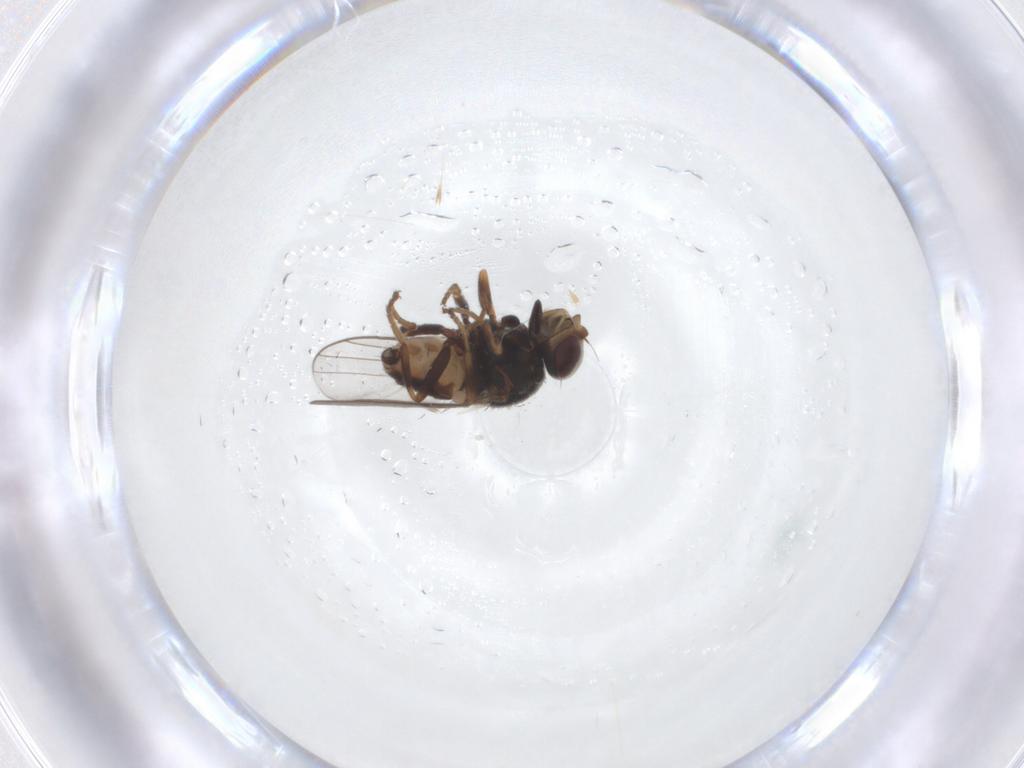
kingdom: Animalia
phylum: Arthropoda
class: Insecta
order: Diptera
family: Chloropidae
